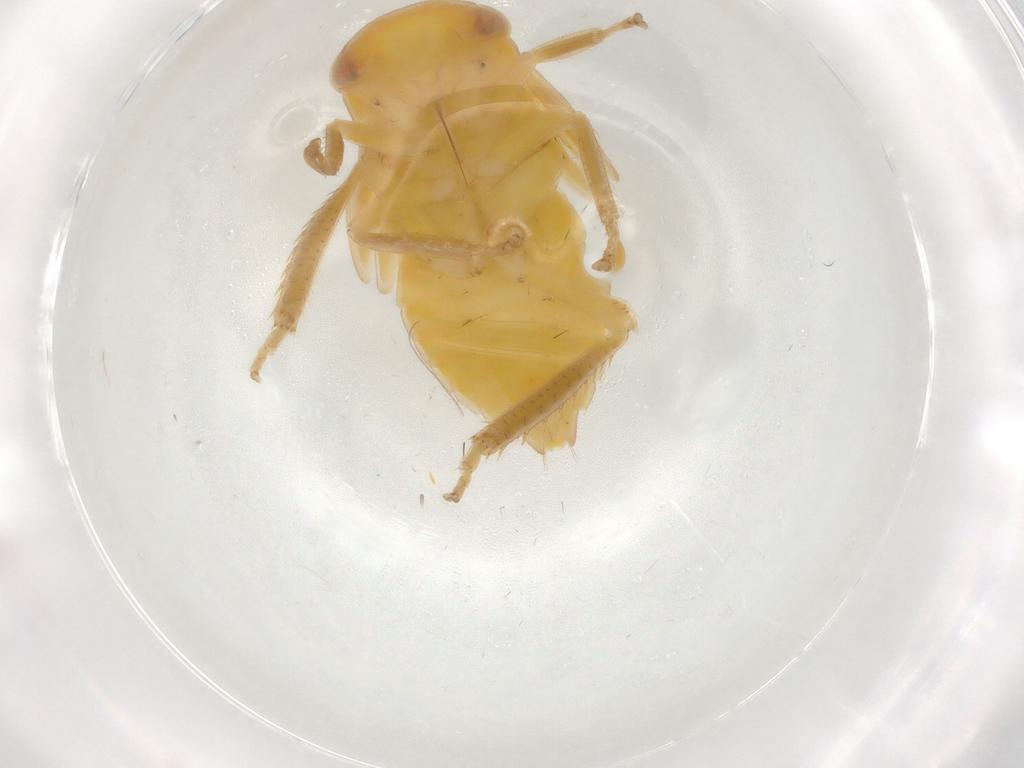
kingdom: Animalia
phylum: Arthropoda
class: Insecta
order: Hemiptera
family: Cicadellidae
